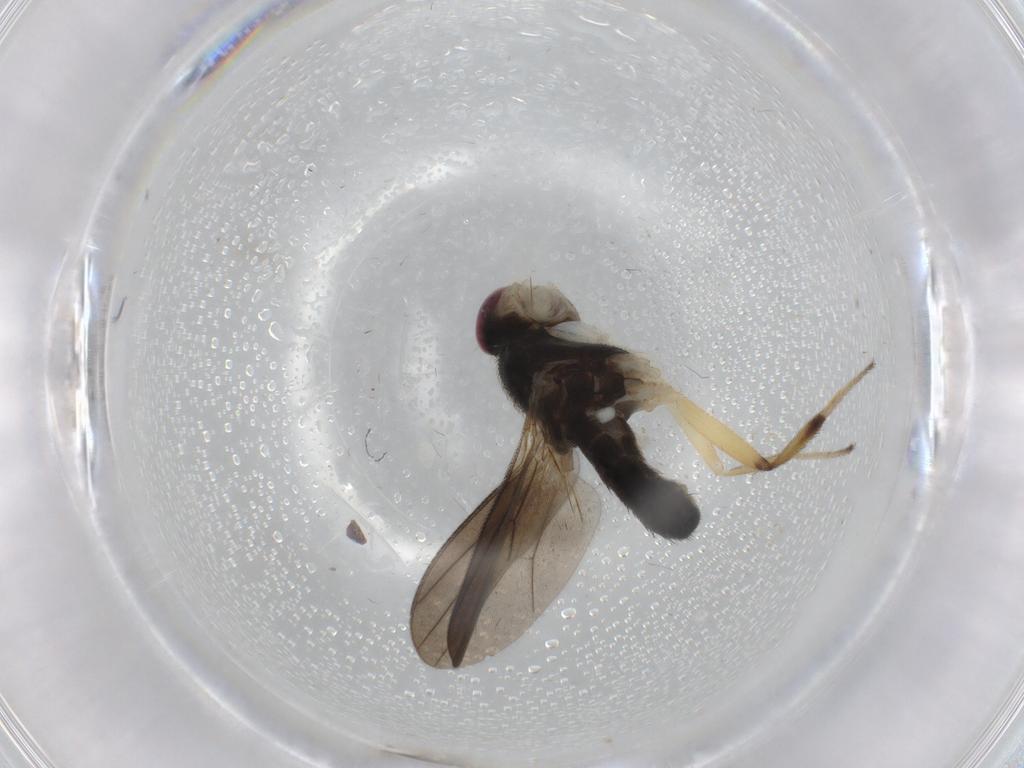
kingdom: Animalia
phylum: Arthropoda
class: Insecta
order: Diptera
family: Clusiidae
